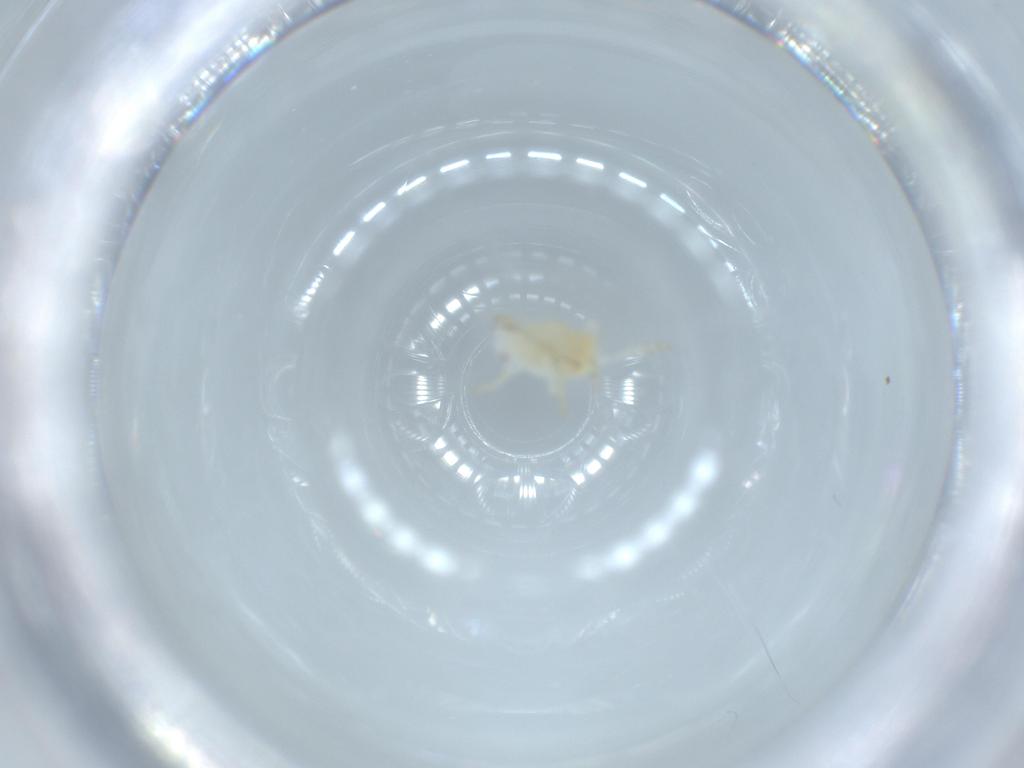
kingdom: Animalia
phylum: Arthropoda
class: Insecta
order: Hemiptera
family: Flatidae
